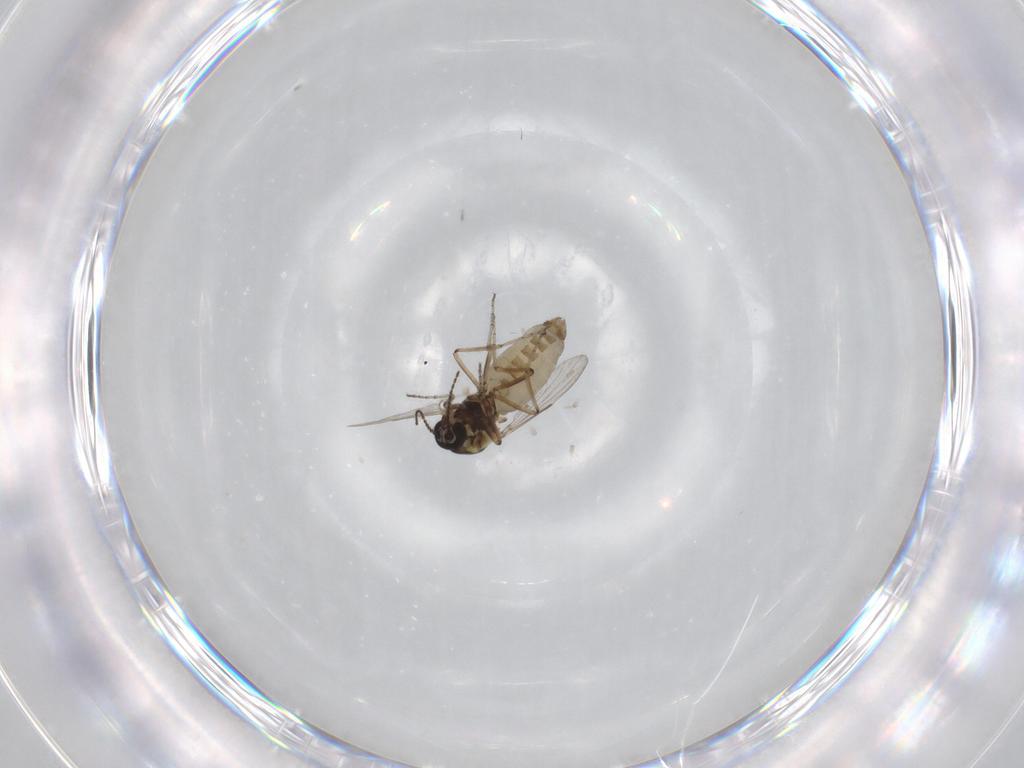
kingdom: Animalia
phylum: Arthropoda
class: Insecta
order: Diptera
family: Ceratopogonidae
